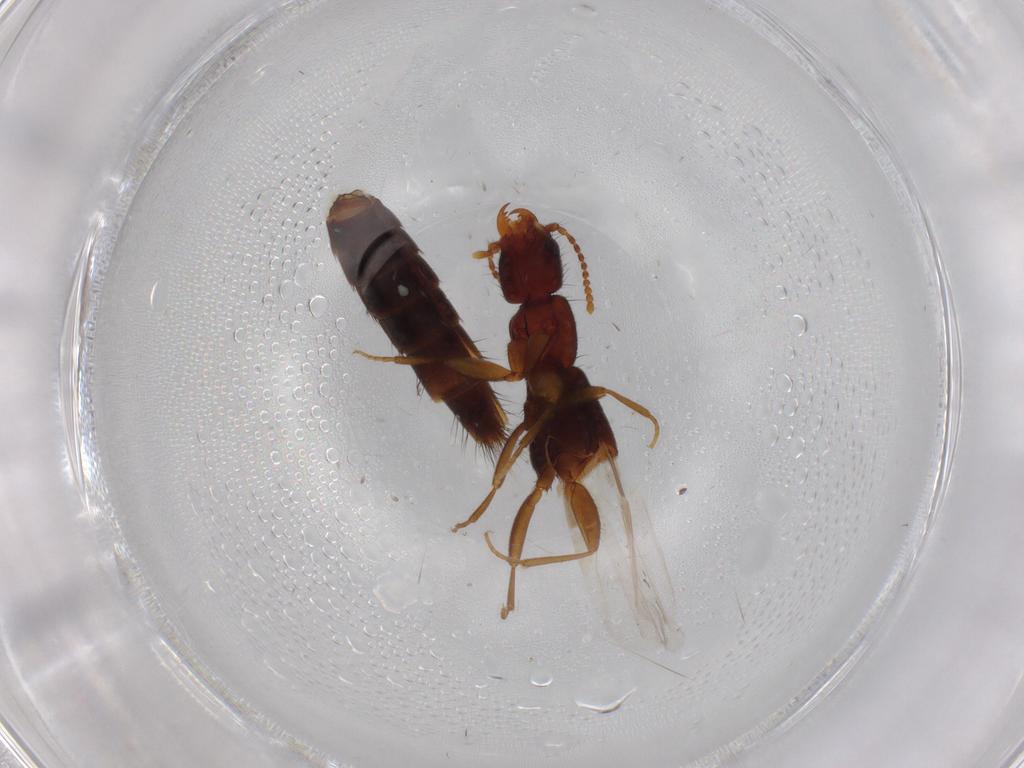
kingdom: Animalia
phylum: Arthropoda
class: Insecta
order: Coleoptera
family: Staphylinidae
